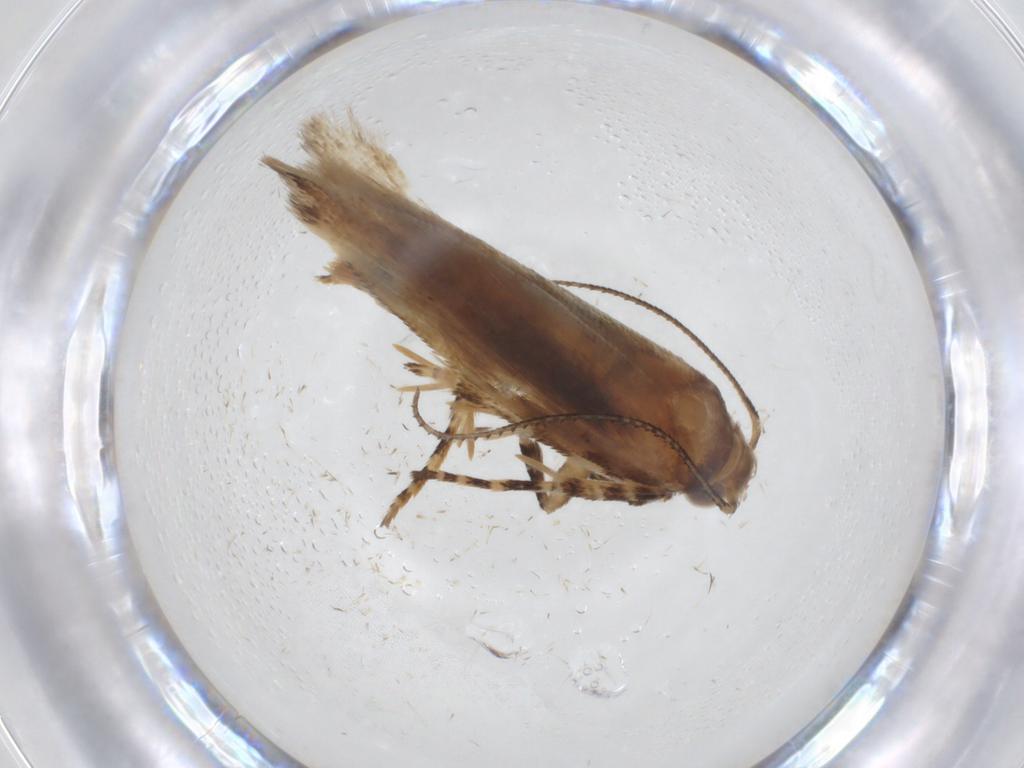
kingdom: Animalia
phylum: Arthropoda
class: Insecta
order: Lepidoptera
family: Gelechiidae
